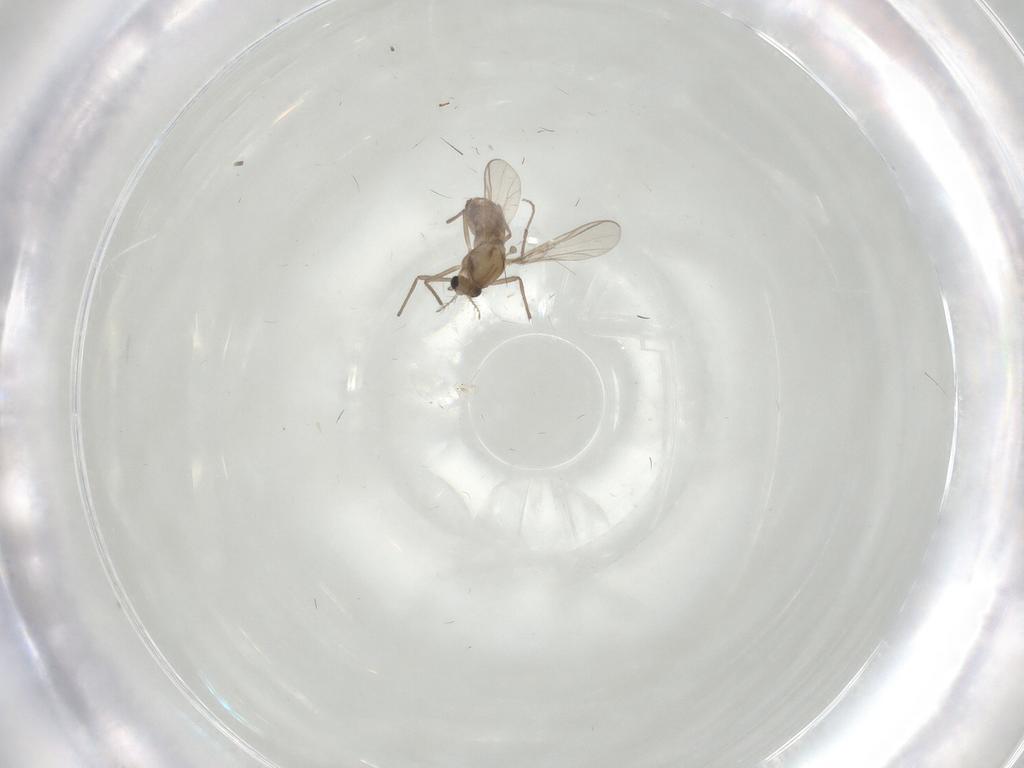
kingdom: Animalia
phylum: Arthropoda
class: Insecta
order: Diptera
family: Chironomidae
